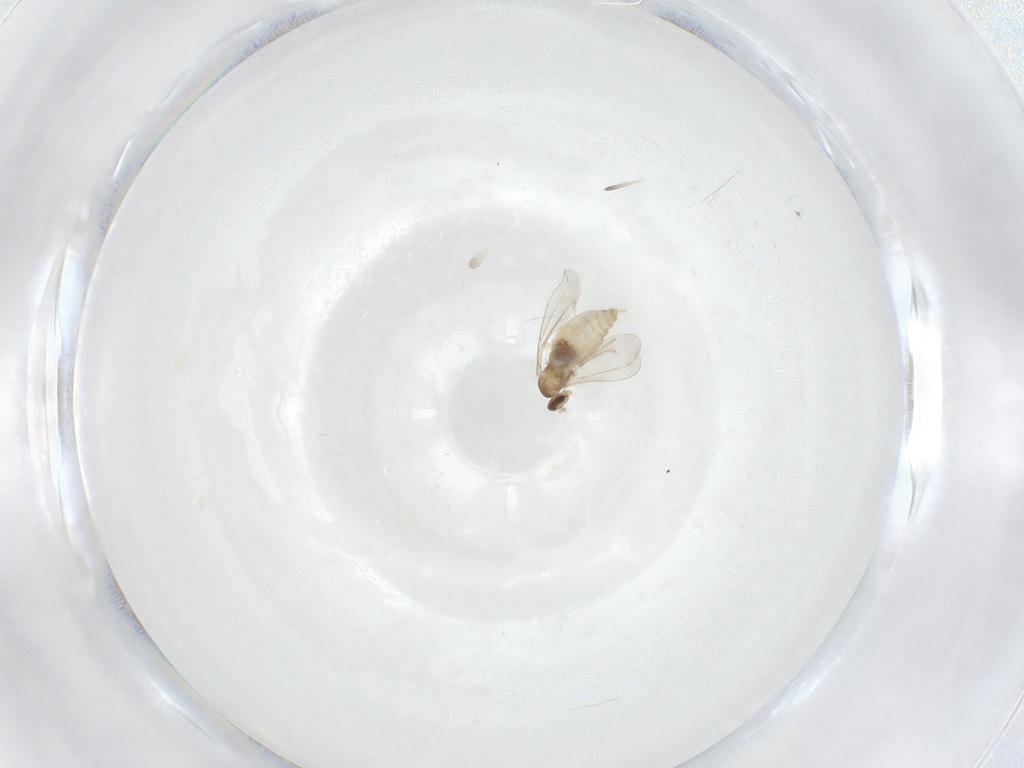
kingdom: Animalia
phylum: Arthropoda
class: Insecta
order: Diptera
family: Cecidomyiidae
